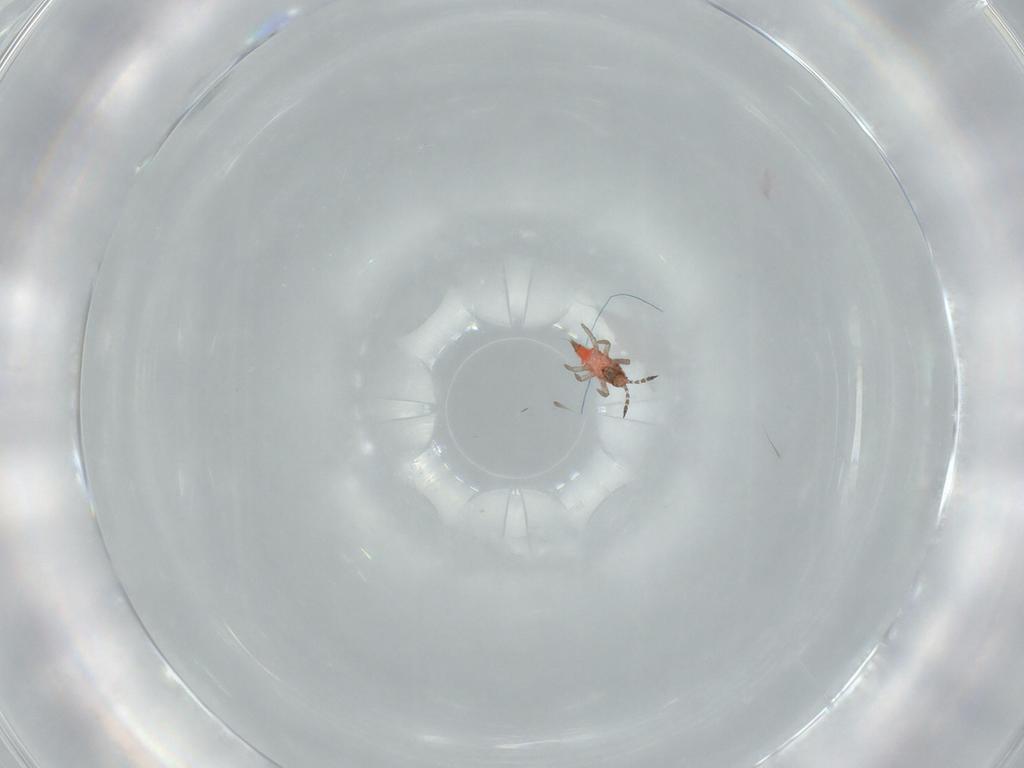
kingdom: Animalia
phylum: Arthropoda
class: Insecta
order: Thysanoptera
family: Phlaeothripidae
